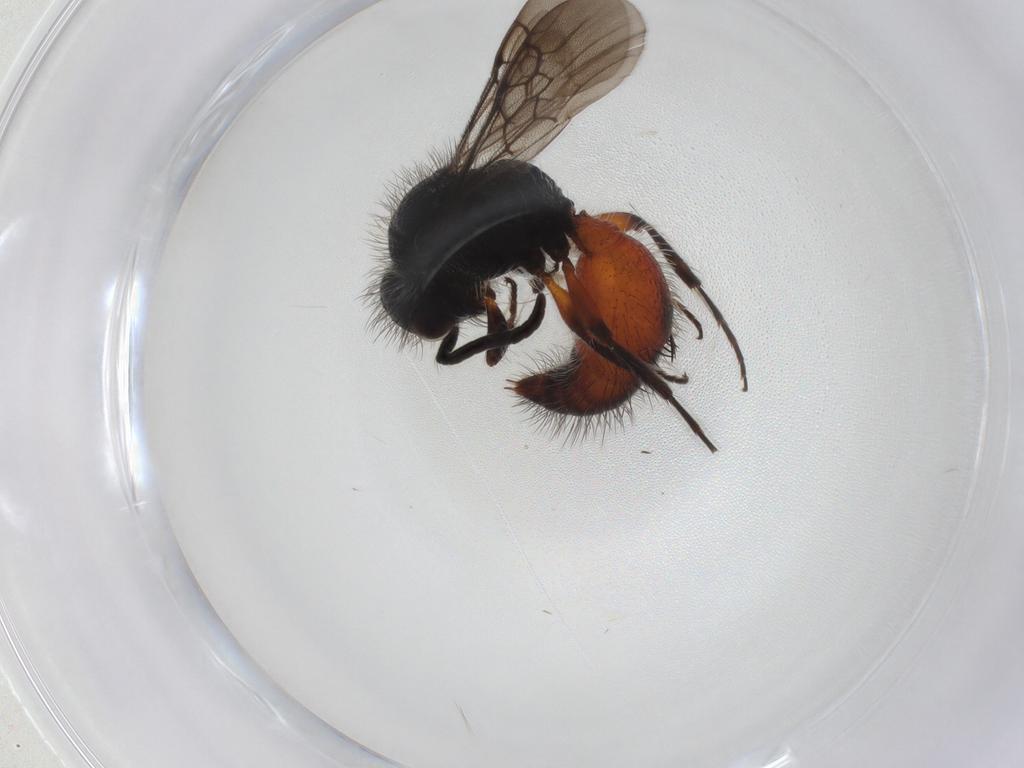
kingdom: Animalia
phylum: Arthropoda
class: Insecta
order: Hymenoptera
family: Mutillidae
